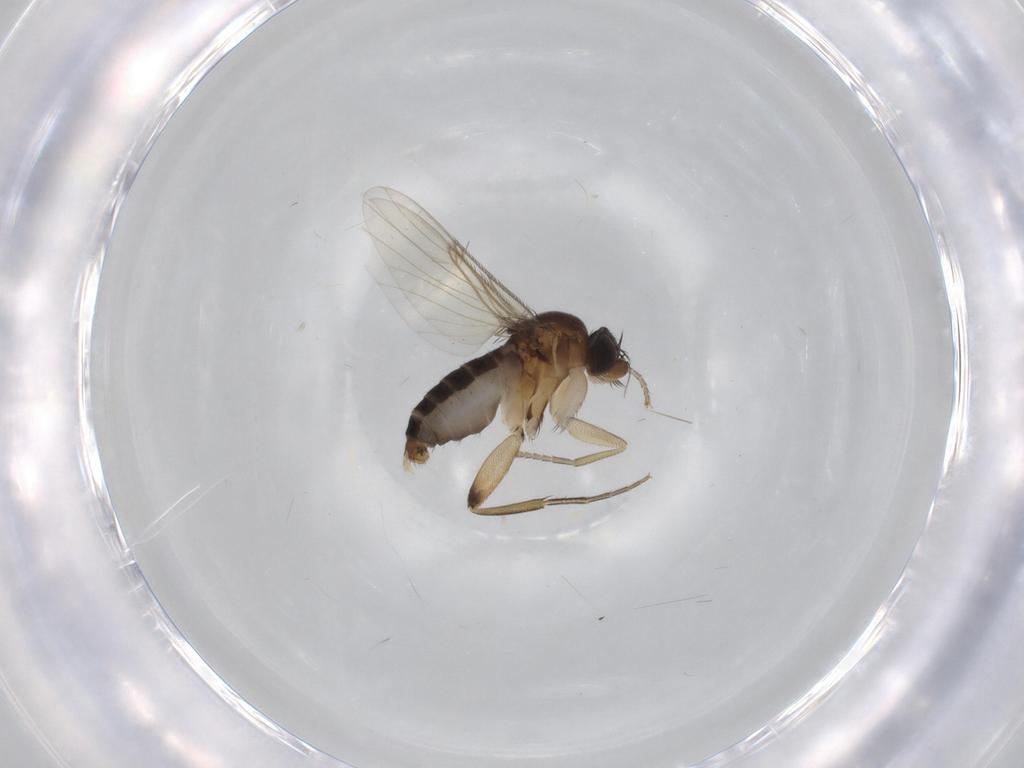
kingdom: Animalia
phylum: Arthropoda
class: Insecta
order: Diptera
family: Phoridae
